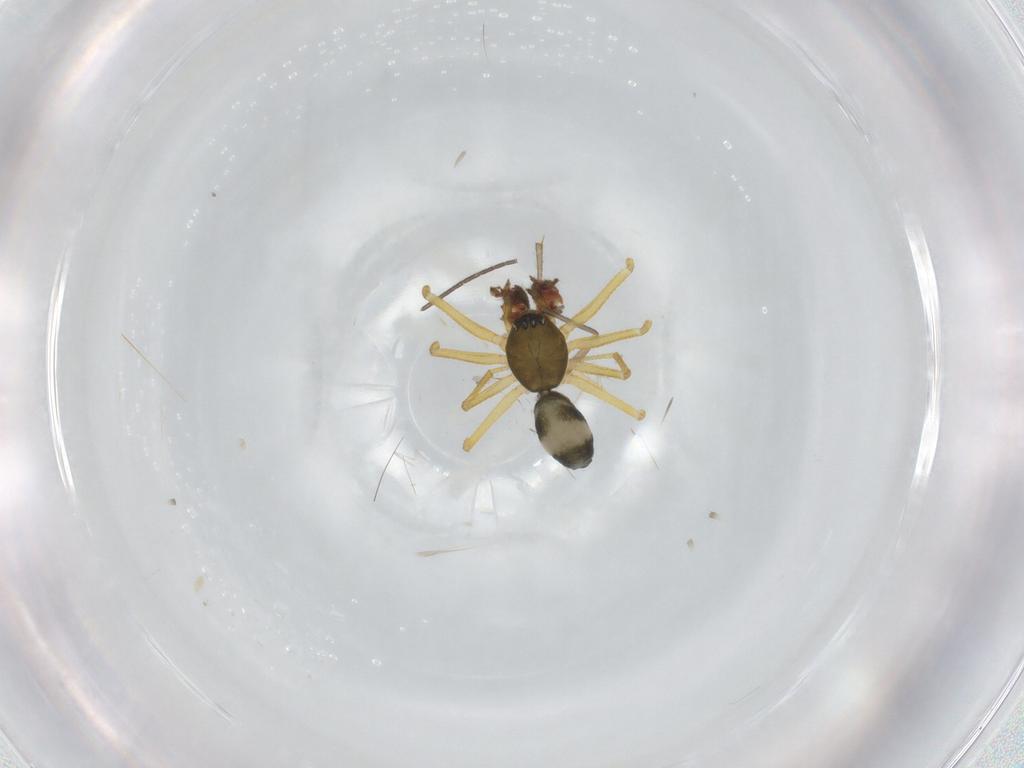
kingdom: Animalia
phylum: Arthropoda
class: Arachnida
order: Araneae
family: Linyphiidae
